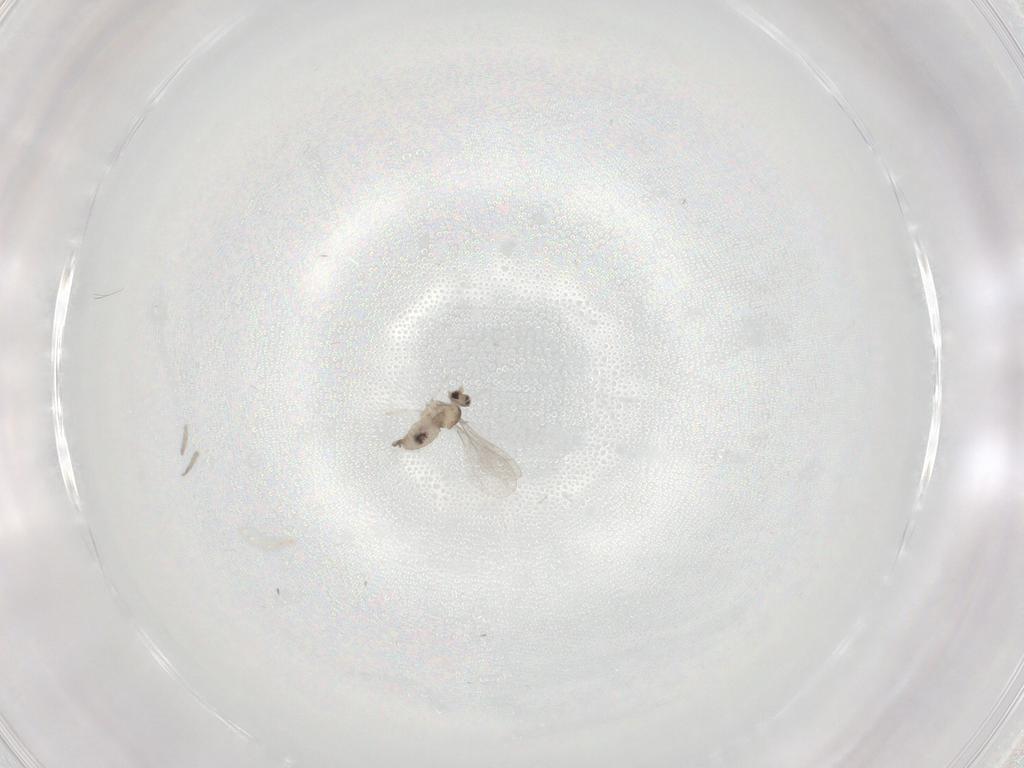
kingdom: Animalia
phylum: Arthropoda
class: Insecta
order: Diptera
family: Cecidomyiidae
